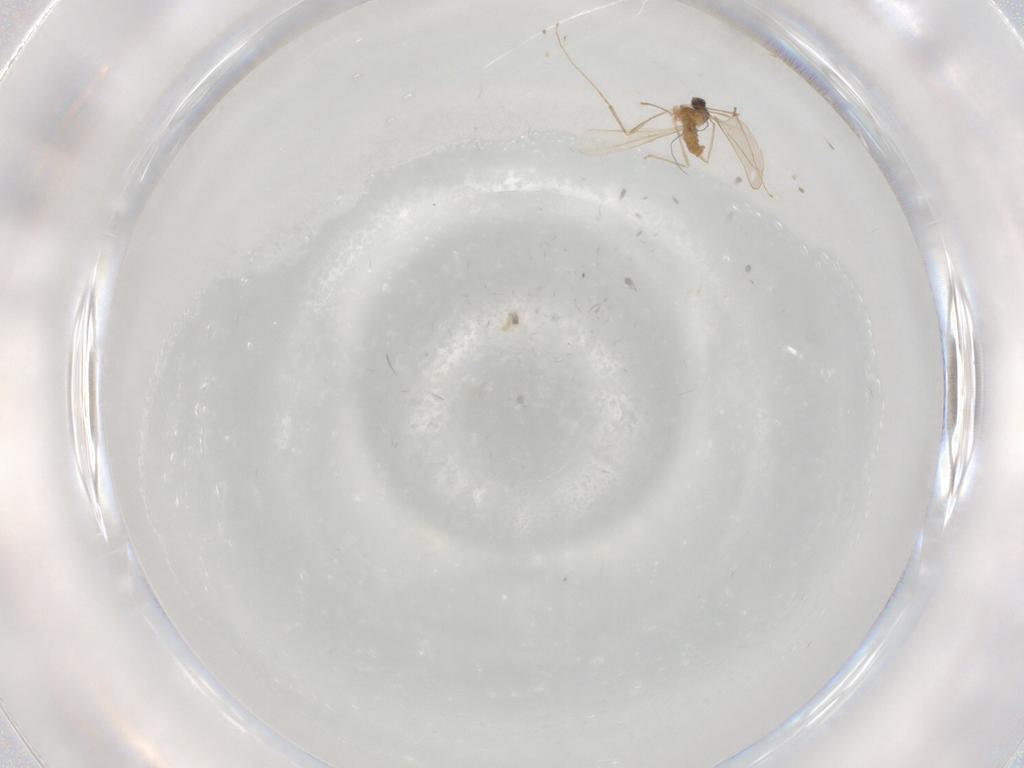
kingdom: Animalia
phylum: Arthropoda
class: Insecta
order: Diptera
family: Cecidomyiidae
